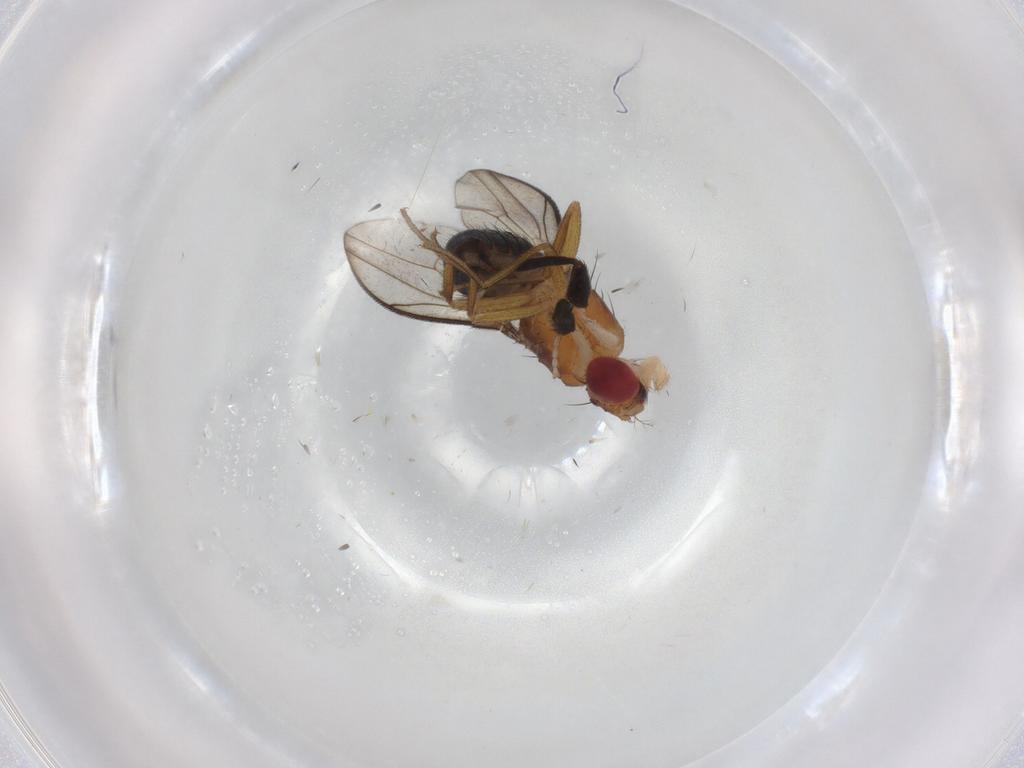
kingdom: Animalia
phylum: Arthropoda
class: Insecta
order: Diptera
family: Drosophilidae
